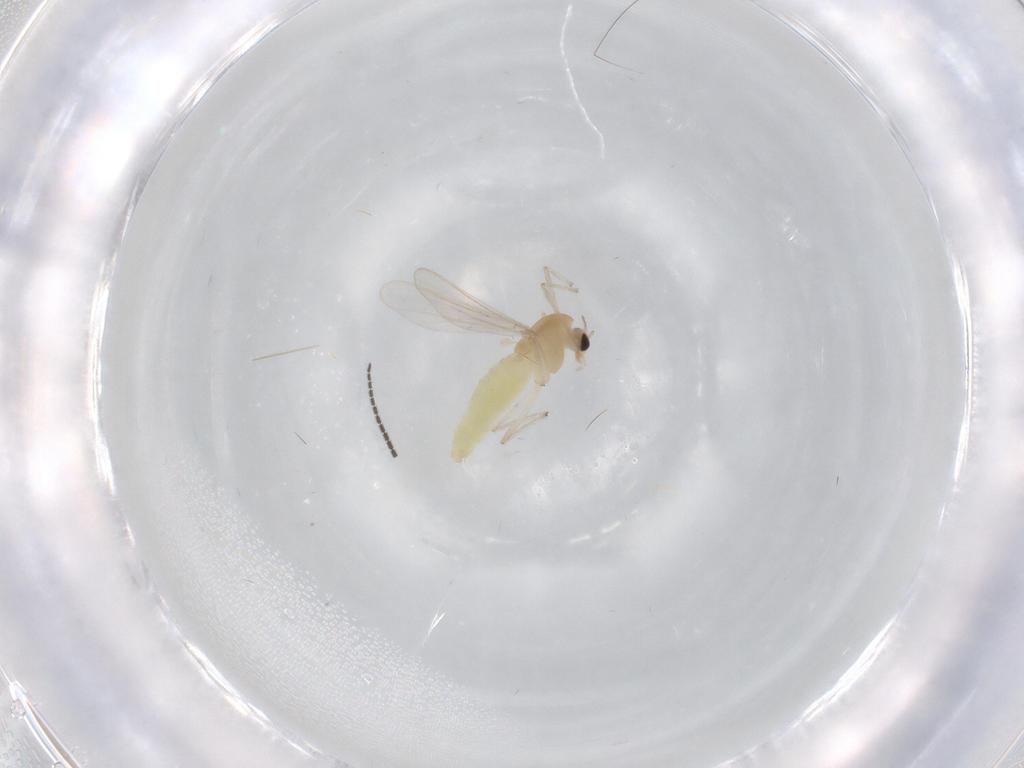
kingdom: Animalia
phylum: Arthropoda
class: Insecta
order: Diptera
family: Chironomidae
